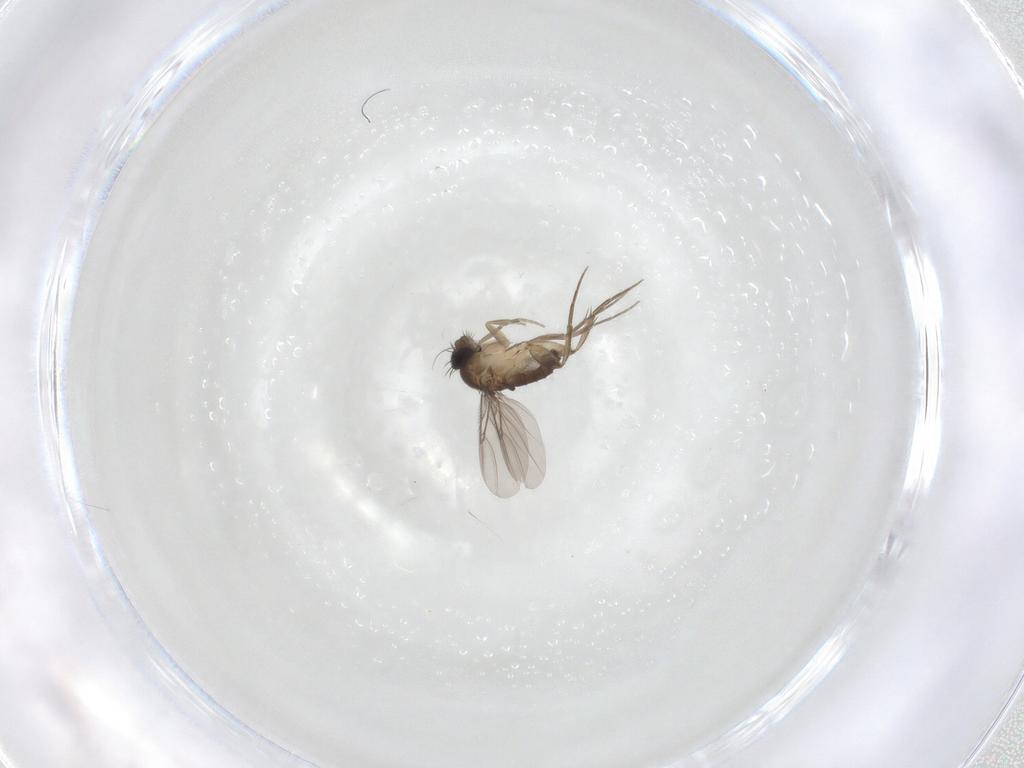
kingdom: Animalia
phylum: Arthropoda
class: Insecta
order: Diptera
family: Phoridae
